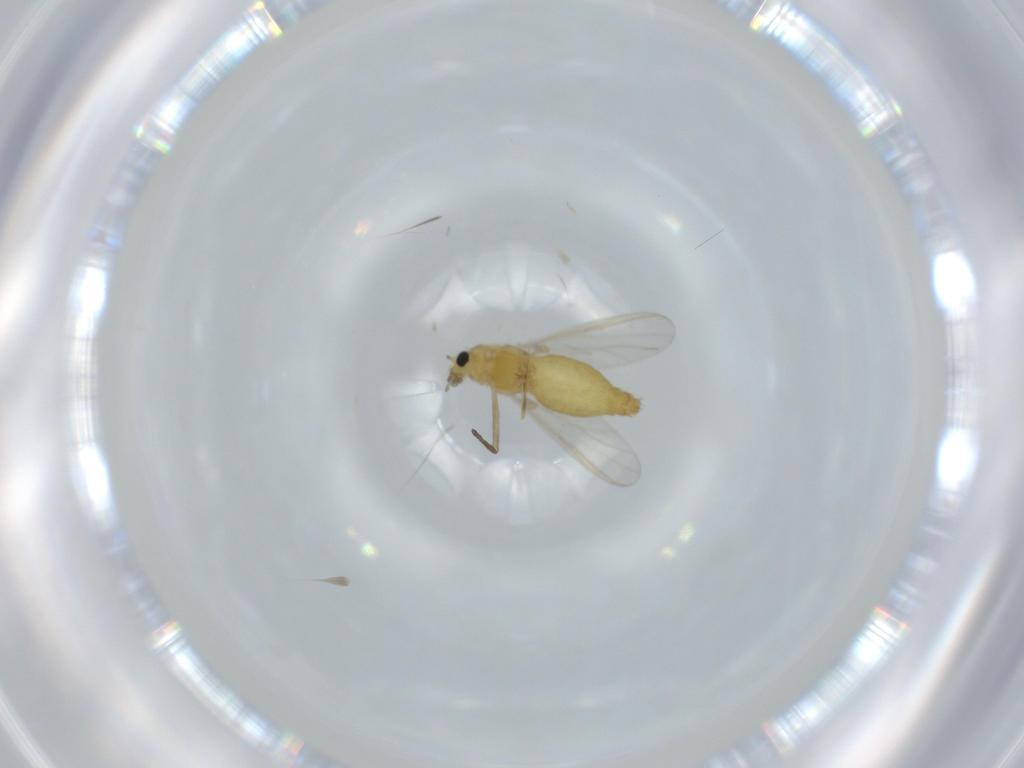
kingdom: Animalia
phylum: Arthropoda
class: Insecta
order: Diptera
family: Chironomidae
